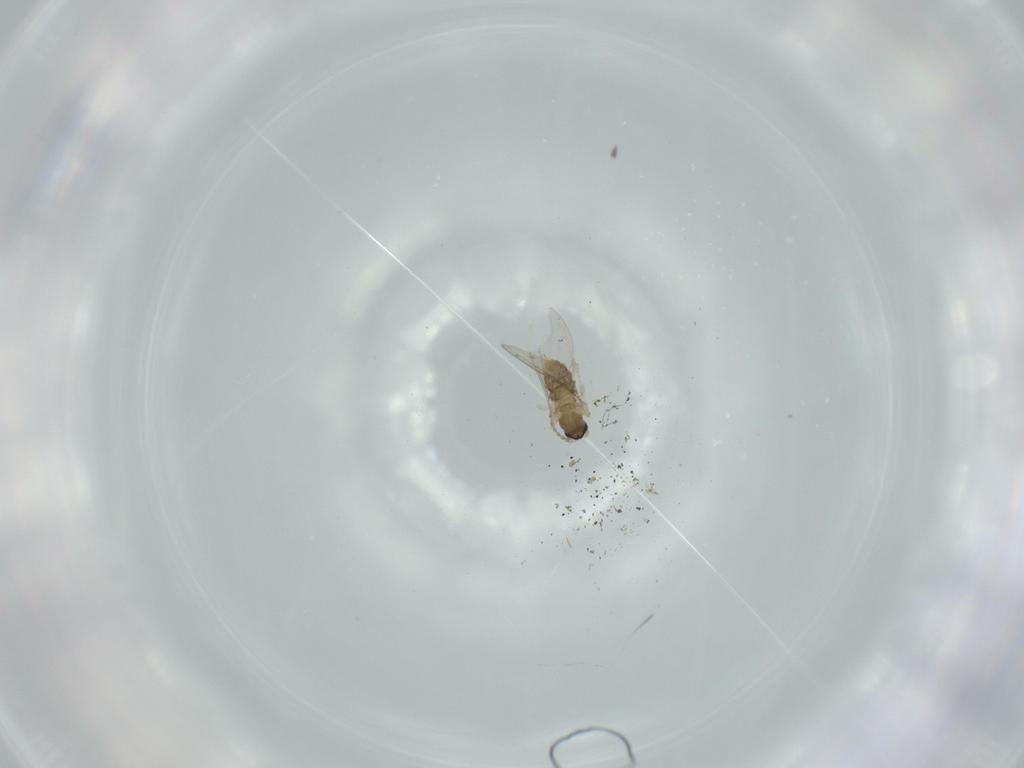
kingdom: Animalia
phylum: Arthropoda
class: Insecta
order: Diptera
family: Cecidomyiidae
